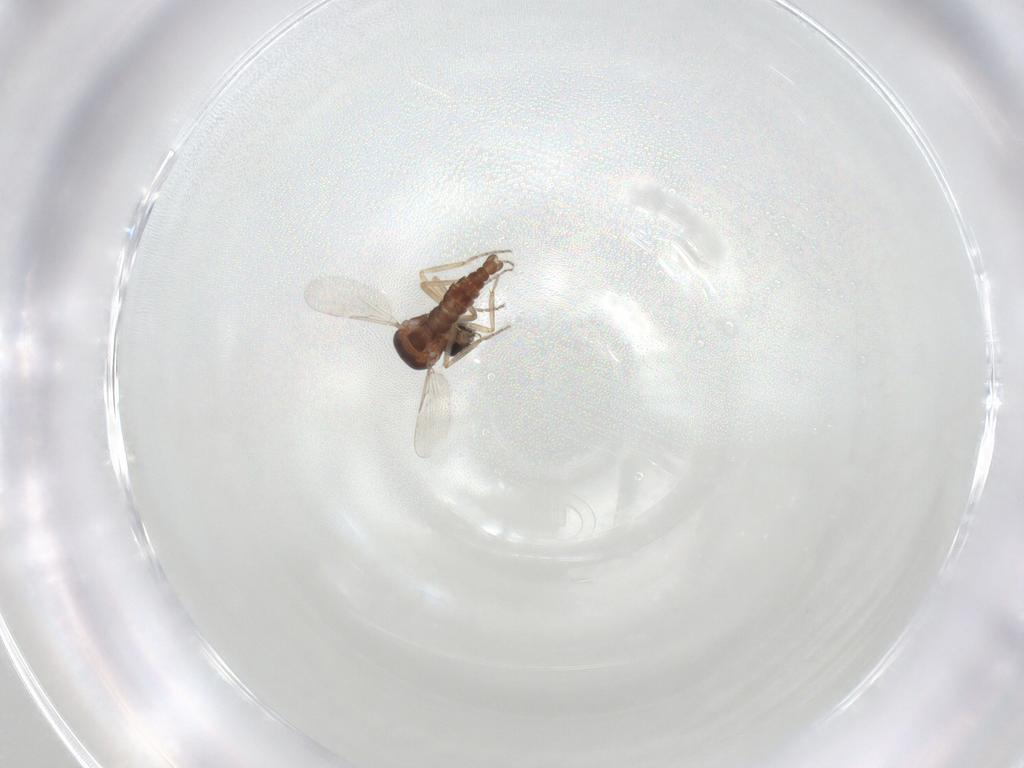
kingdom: Animalia
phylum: Arthropoda
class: Insecta
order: Diptera
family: Ceratopogonidae
